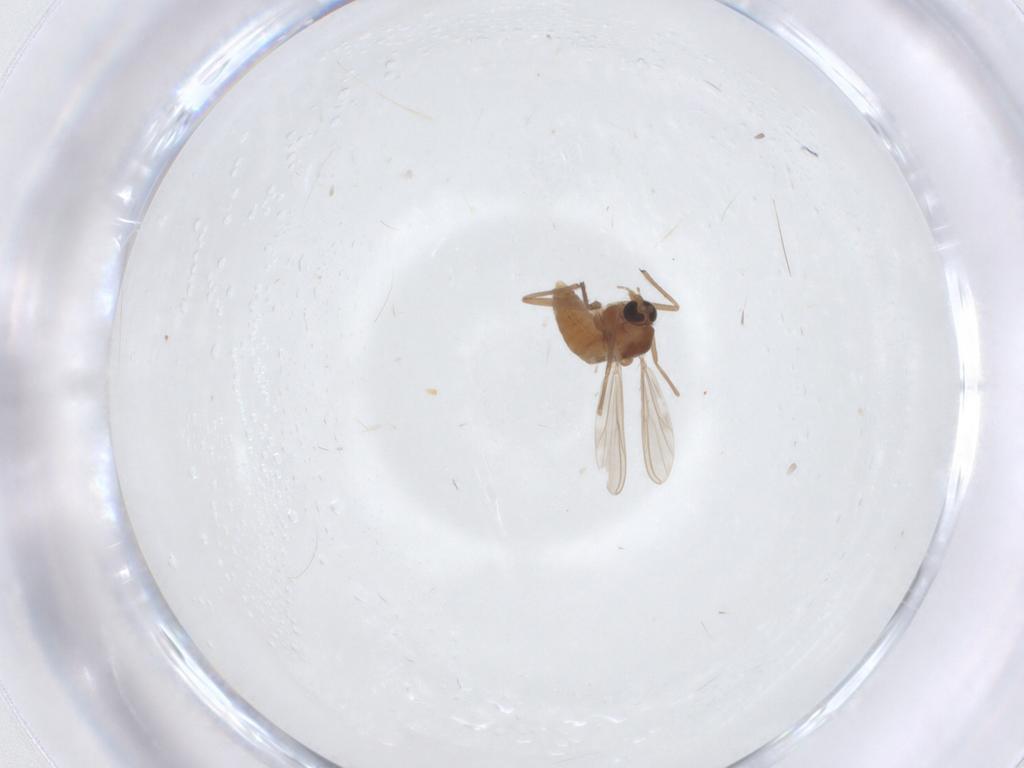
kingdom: Animalia
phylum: Arthropoda
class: Insecta
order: Diptera
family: Chironomidae
